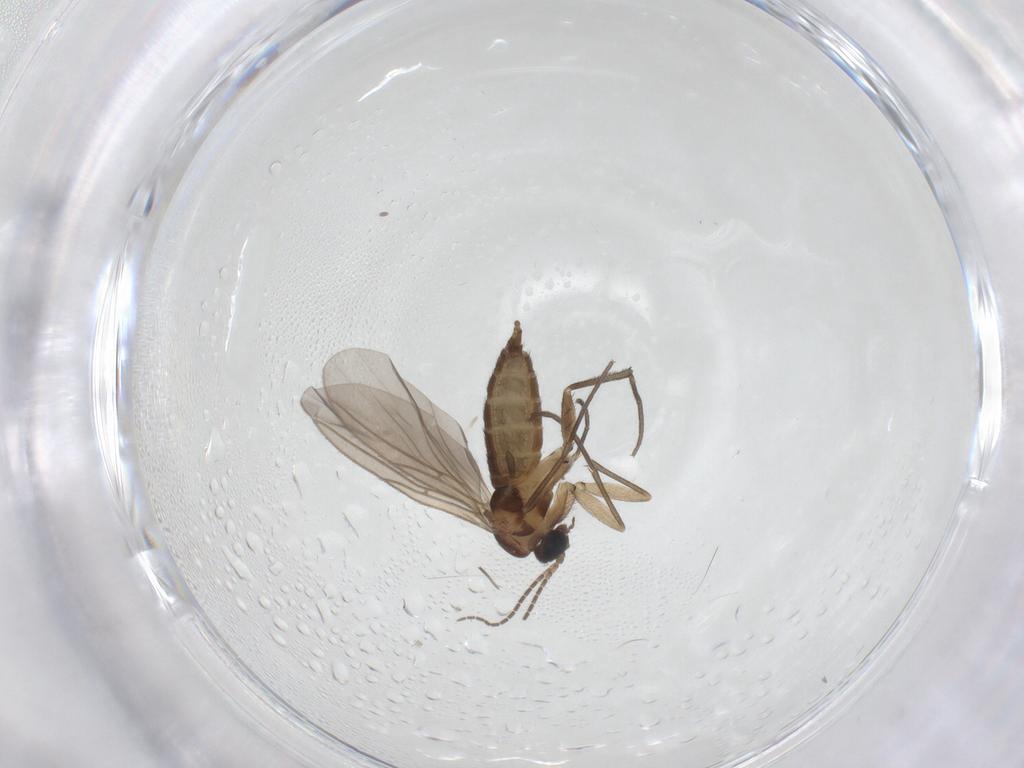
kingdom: Animalia
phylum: Arthropoda
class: Insecta
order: Diptera
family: Sciaridae
